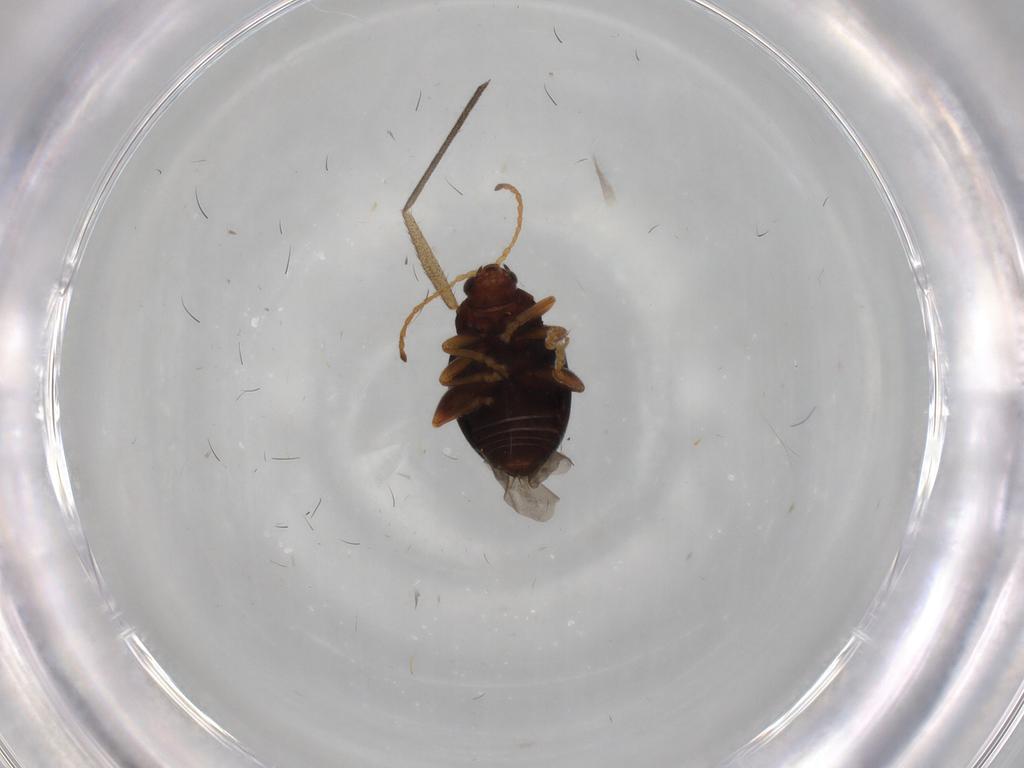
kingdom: Animalia
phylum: Arthropoda
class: Insecta
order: Coleoptera
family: Chrysomelidae
